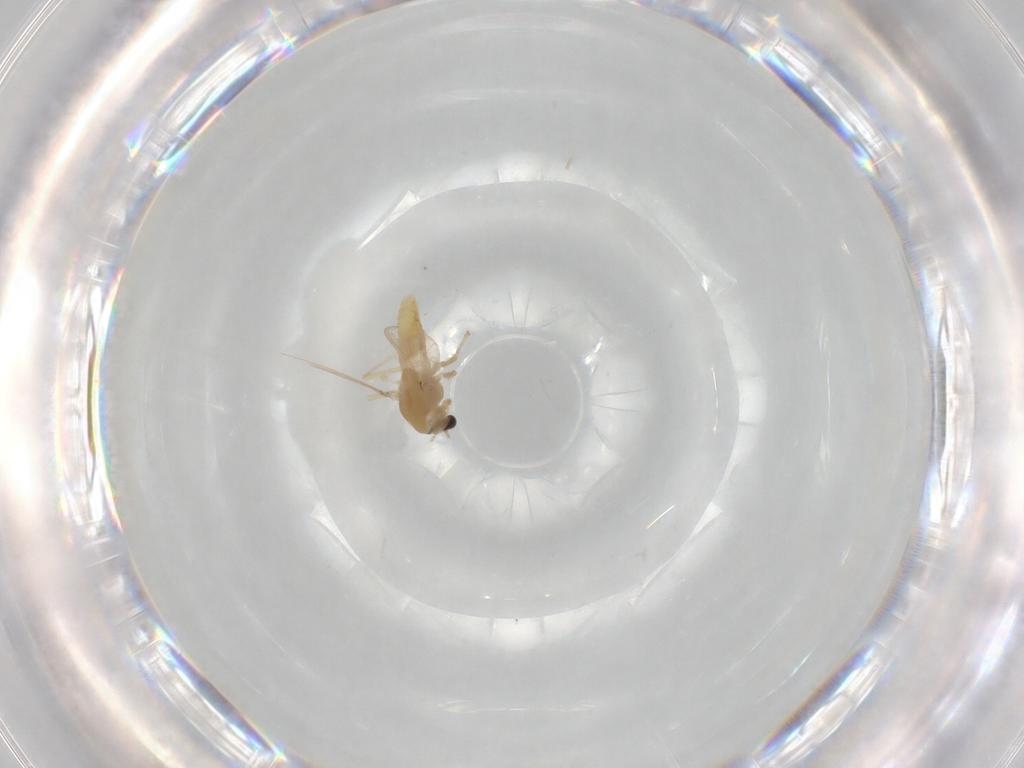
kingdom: Animalia
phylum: Arthropoda
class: Insecta
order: Diptera
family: Chironomidae
